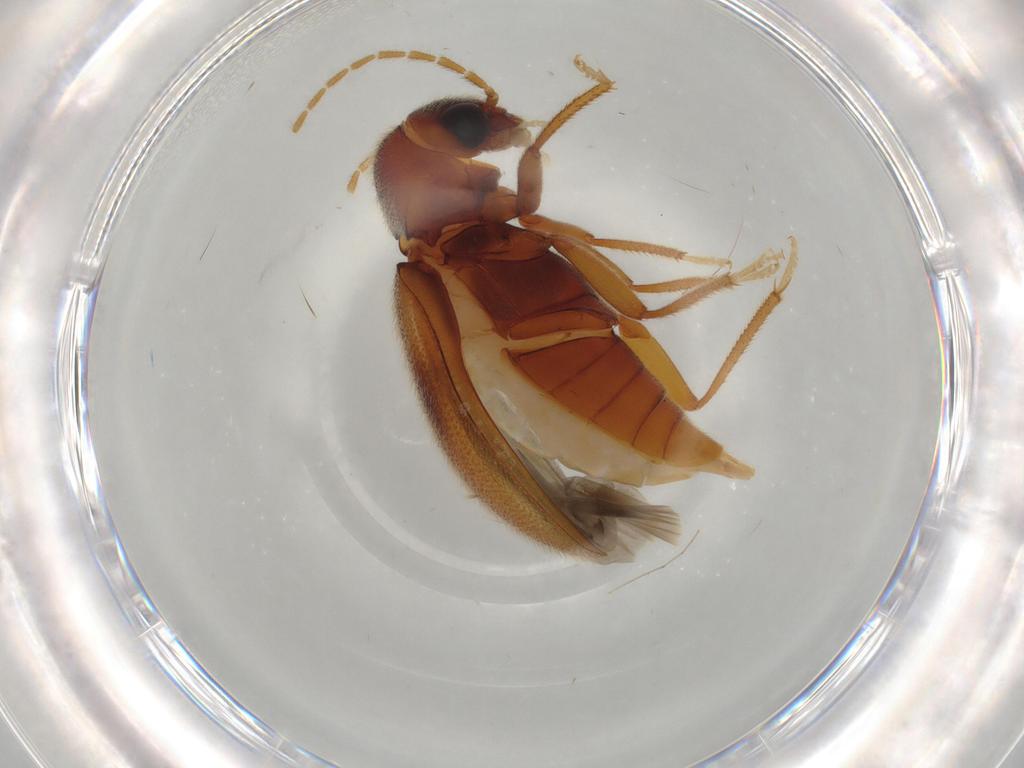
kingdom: Animalia
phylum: Arthropoda
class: Insecta
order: Coleoptera
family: Ptilodactylidae
